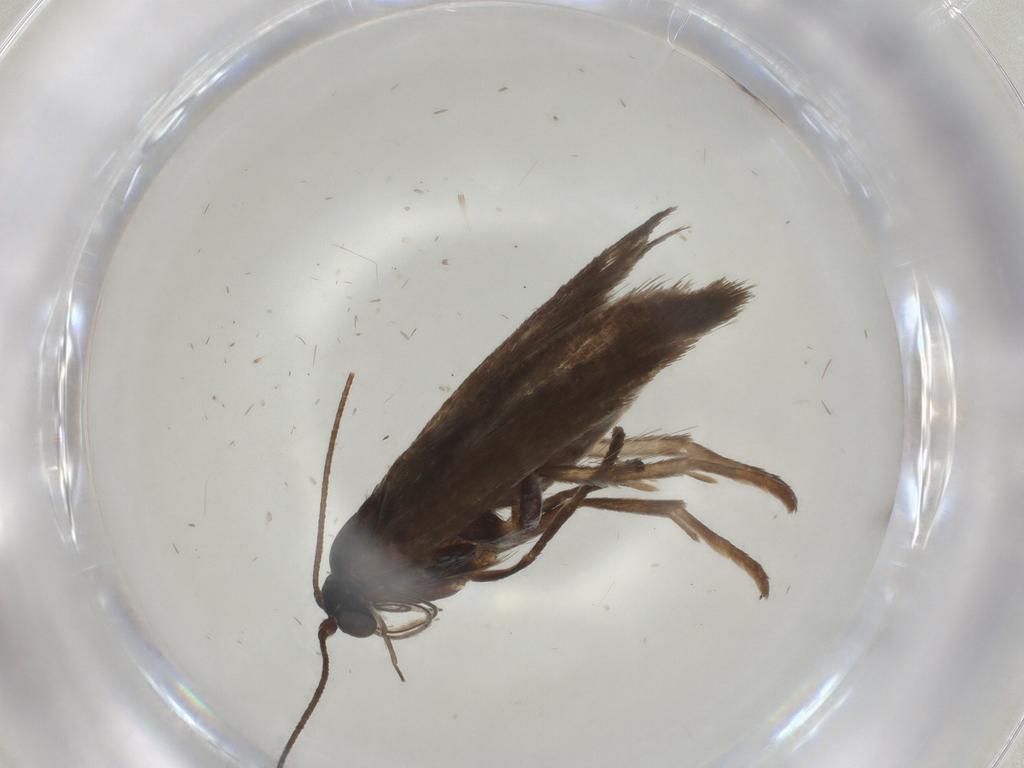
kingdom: Animalia
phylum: Arthropoda
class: Insecta
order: Lepidoptera
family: Adelidae
